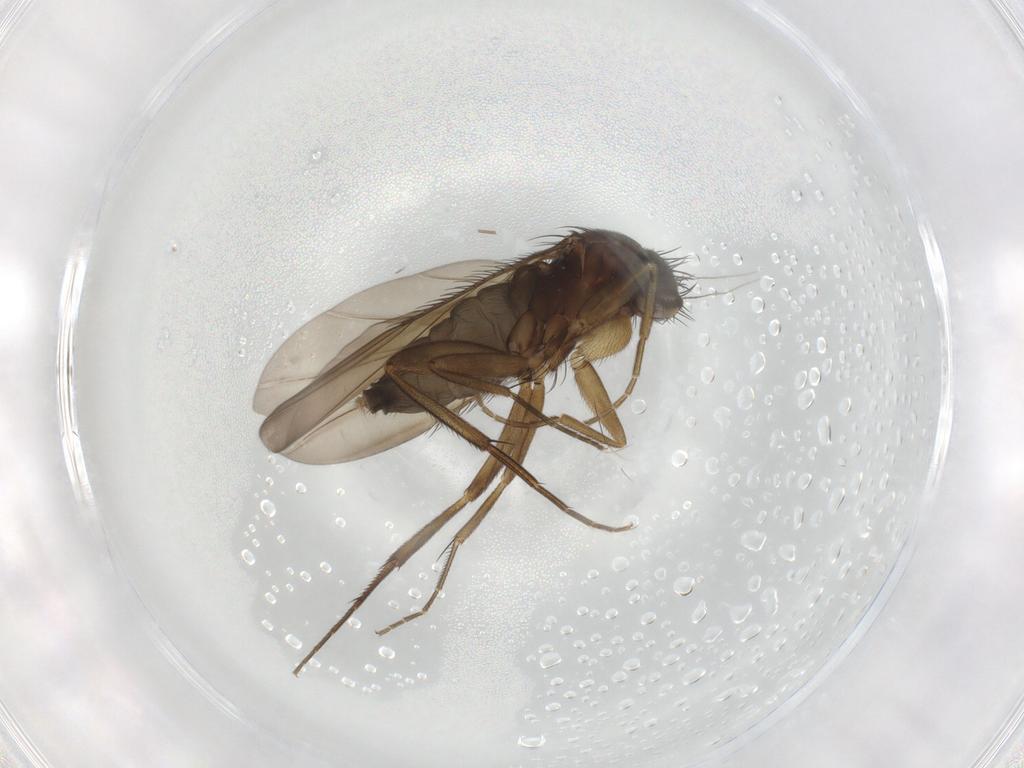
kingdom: Animalia
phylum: Arthropoda
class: Insecta
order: Diptera
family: Phoridae
